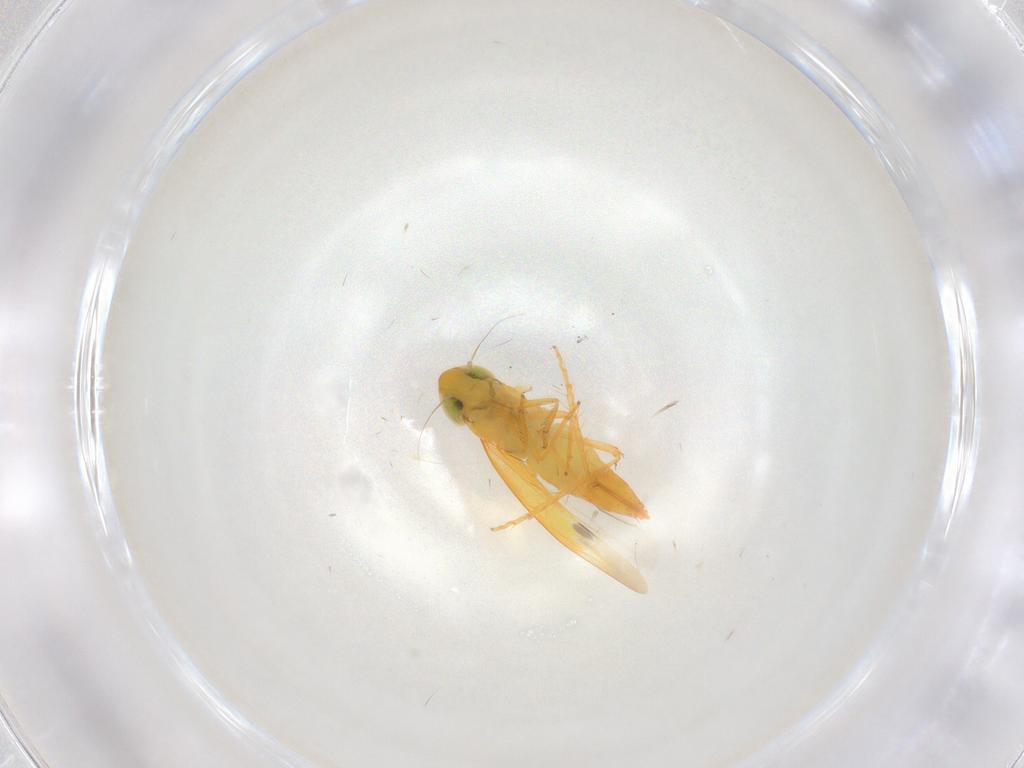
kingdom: Animalia
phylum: Arthropoda
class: Insecta
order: Hemiptera
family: Cicadellidae
